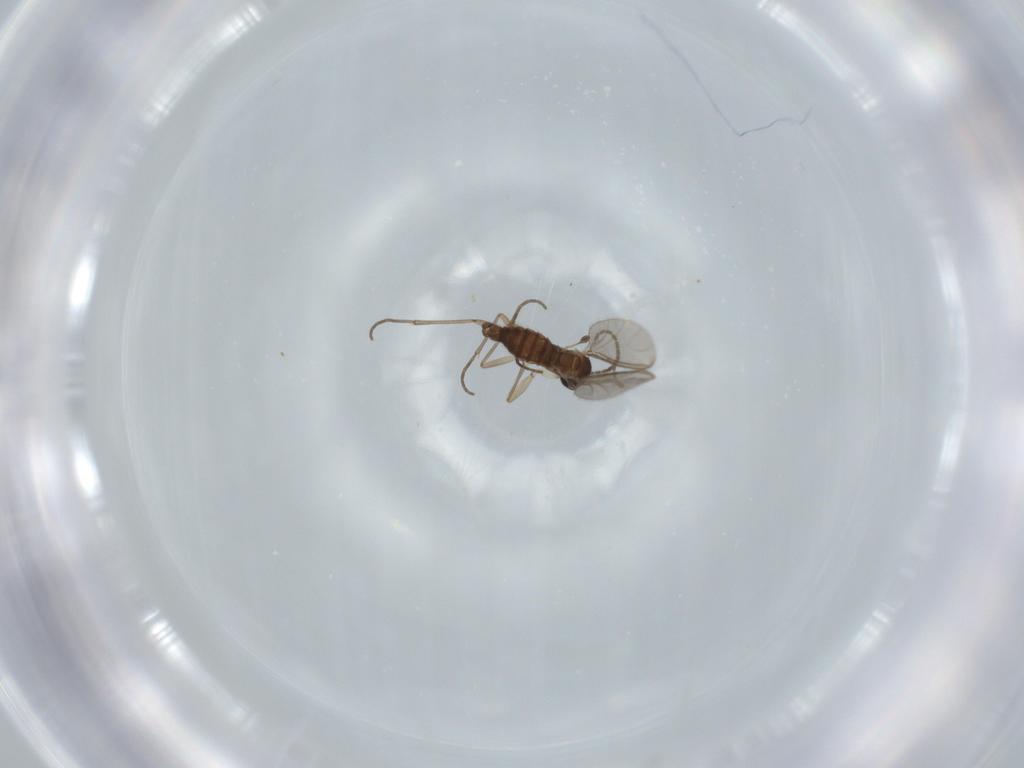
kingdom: Animalia
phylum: Arthropoda
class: Insecta
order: Diptera
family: Sciaridae
